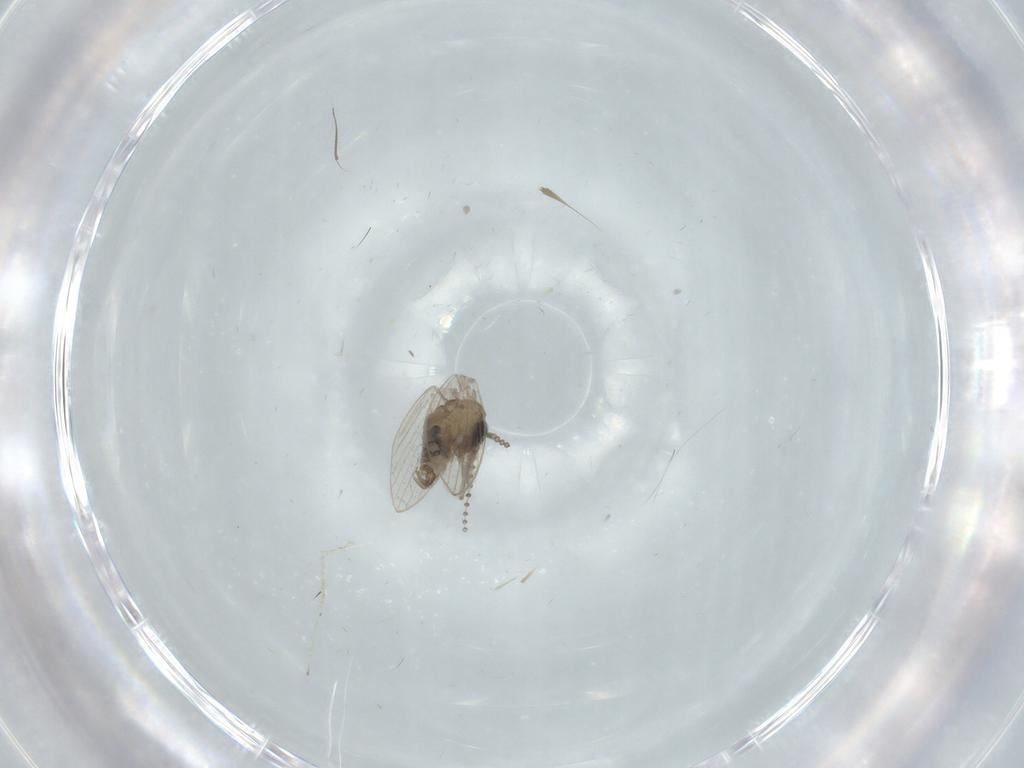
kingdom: Animalia
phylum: Arthropoda
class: Insecta
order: Diptera
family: Psychodidae
